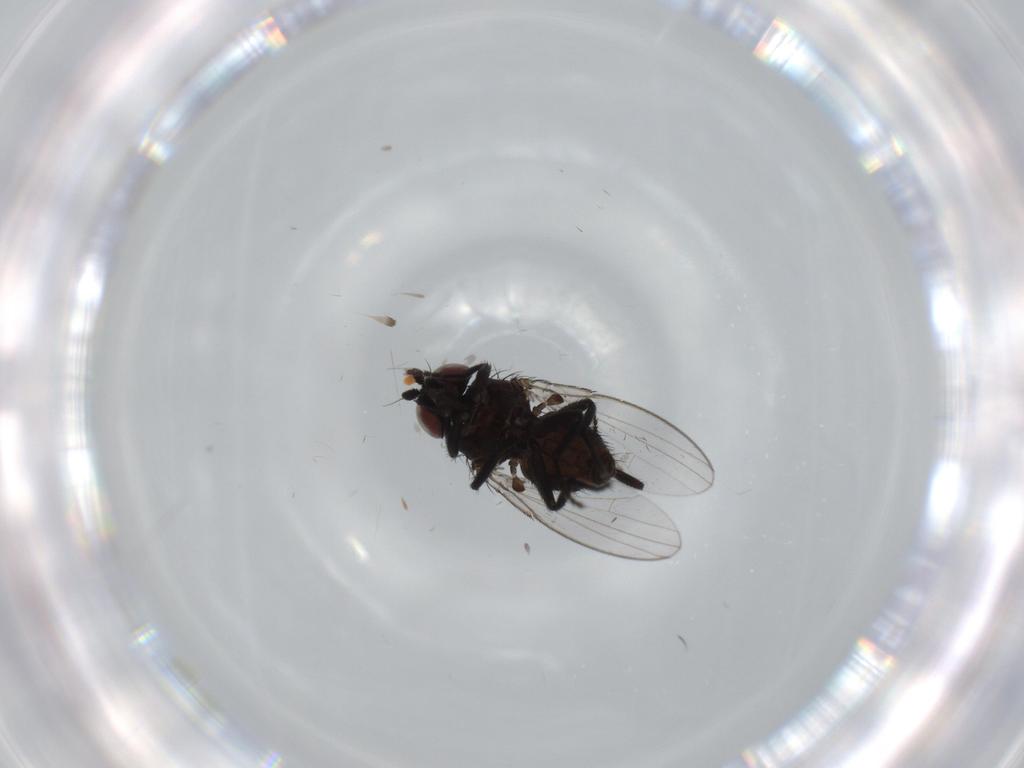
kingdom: Animalia
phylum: Arthropoda
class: Insecta
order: Diptera
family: Milichiidae
